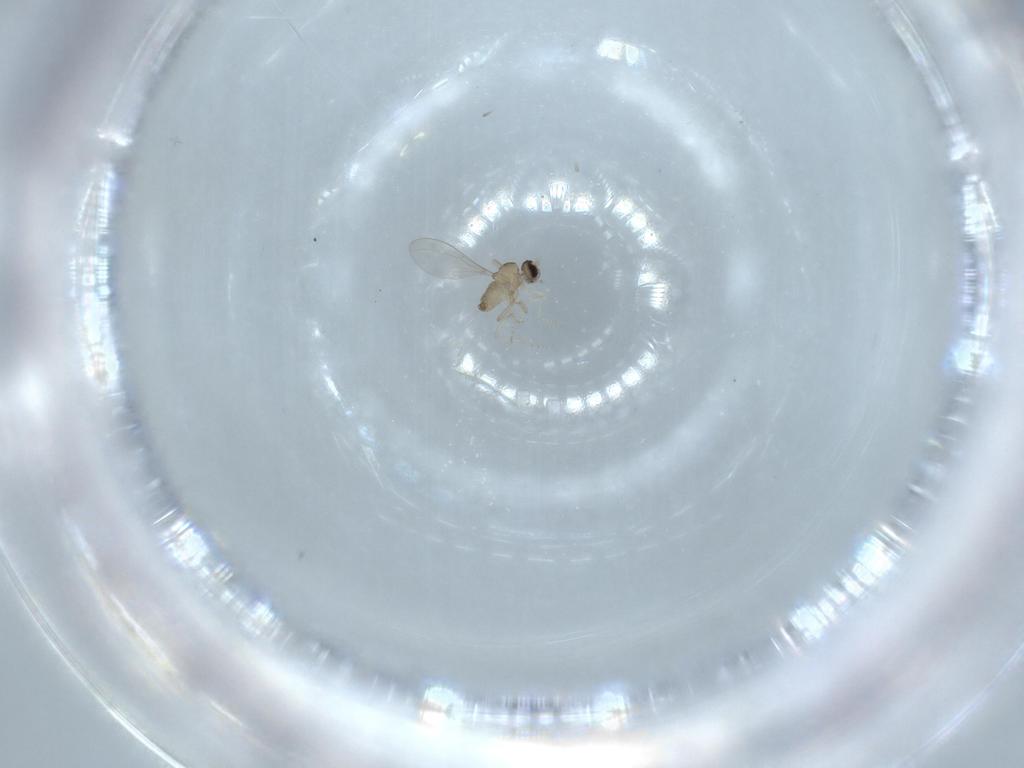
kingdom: Animalia
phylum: Arthropoda
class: Insecta
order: Diptera
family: Cecidomyiidae
